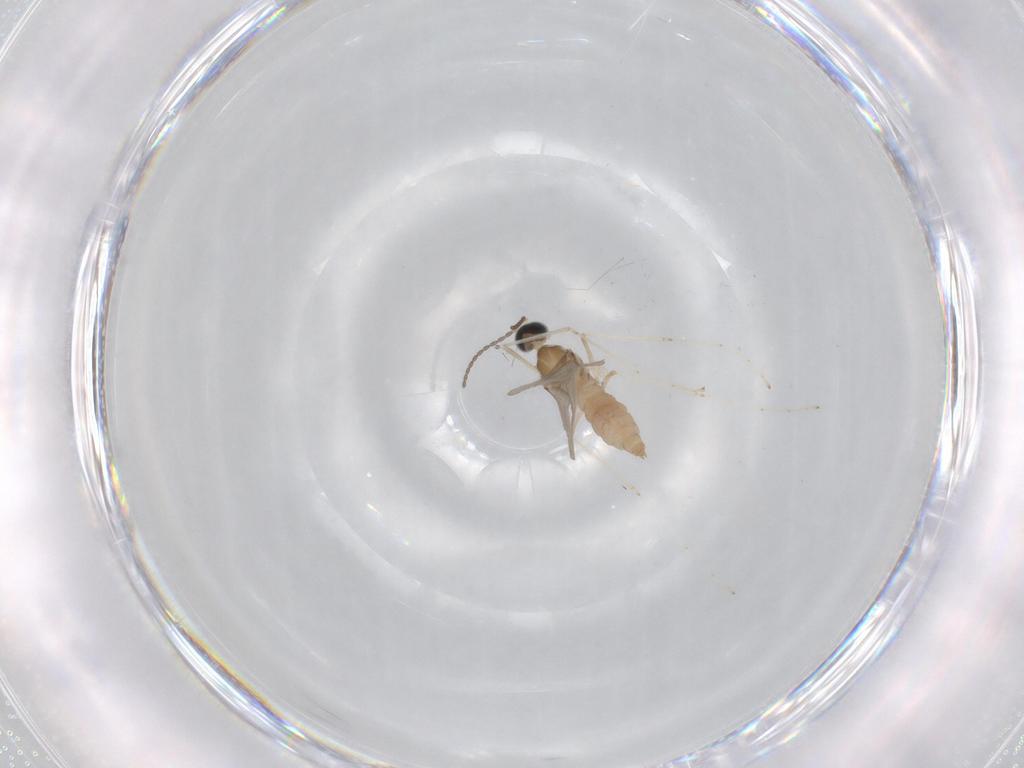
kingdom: Animalia
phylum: Arthropoda
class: Insecta
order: Diptera
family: Cecidomyiidae
